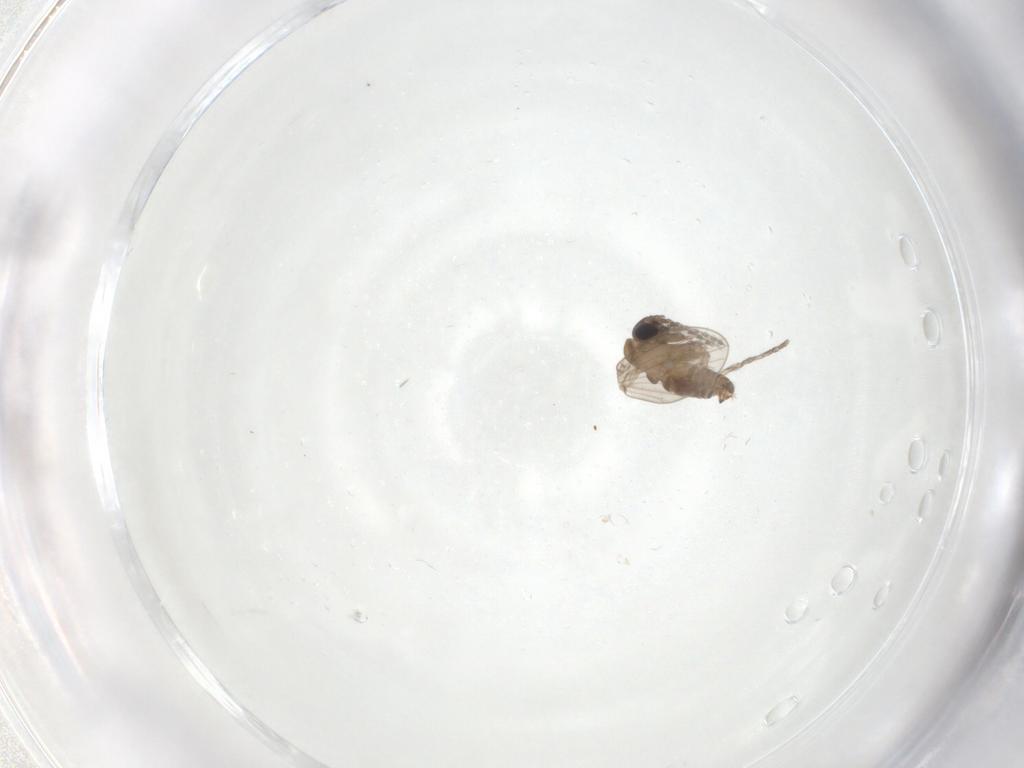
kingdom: Animalia
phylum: Arthropoda
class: Insecta
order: Diptera
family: Psychodidae
